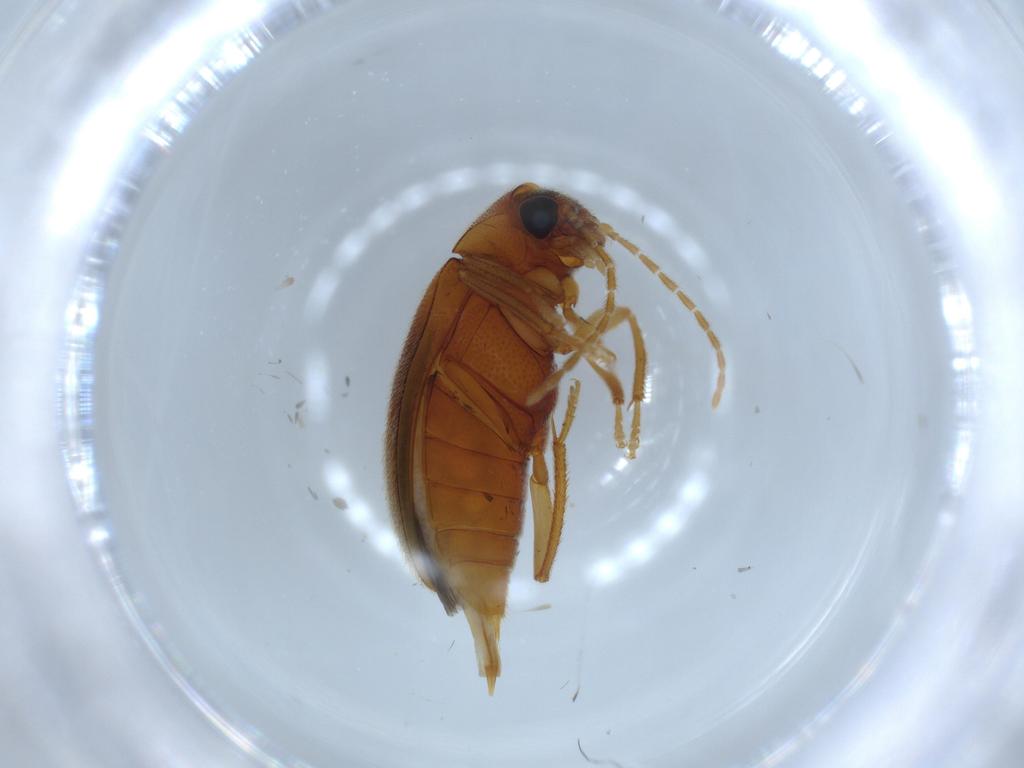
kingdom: Animalia
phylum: Arthropoda
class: Insecta
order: Coleoptera
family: Ptilodactylidae
